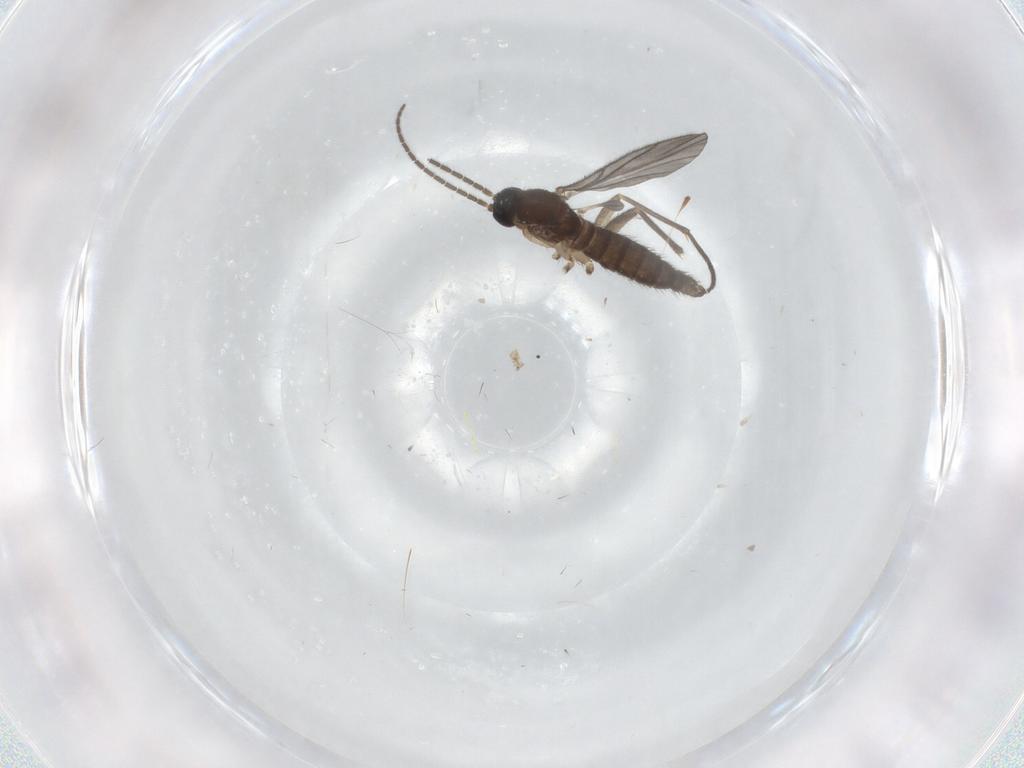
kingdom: Animalia
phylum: Arthropoda
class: Insecta
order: Diptera
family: Sciaridae
